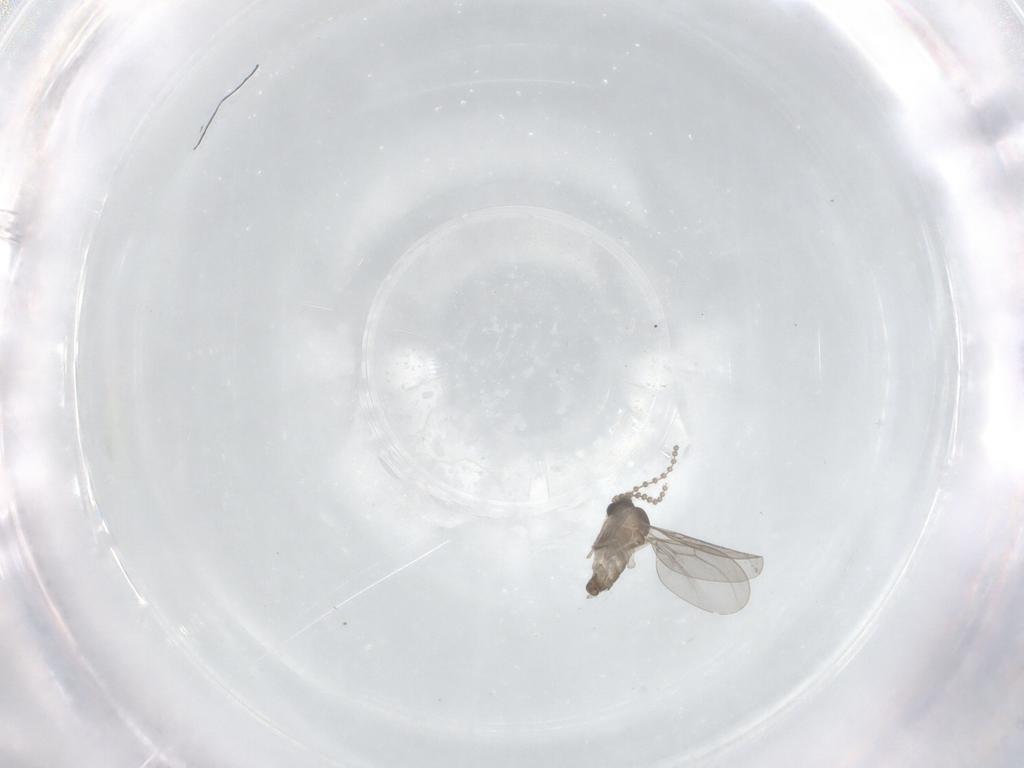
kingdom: Animalia
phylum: Arthropoda
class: Insecta
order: Diptera
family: Cecidomyiidae
